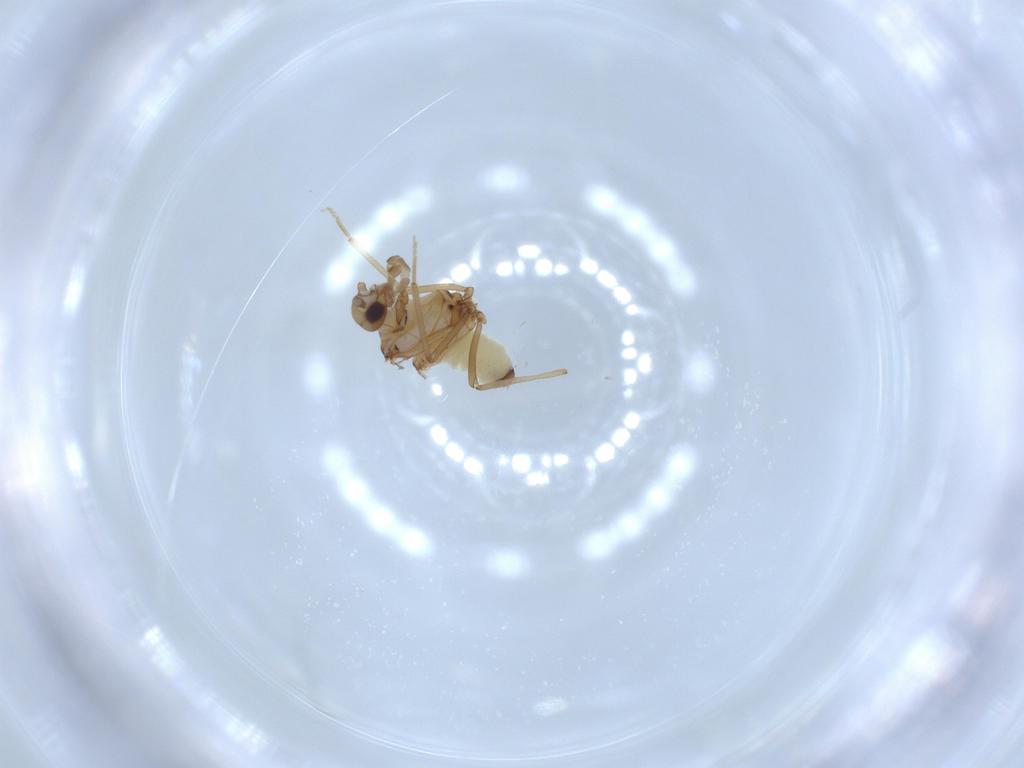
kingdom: Animalia
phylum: Arthropoda
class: Insecta
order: Neuroptera
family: Coniopterygidae
